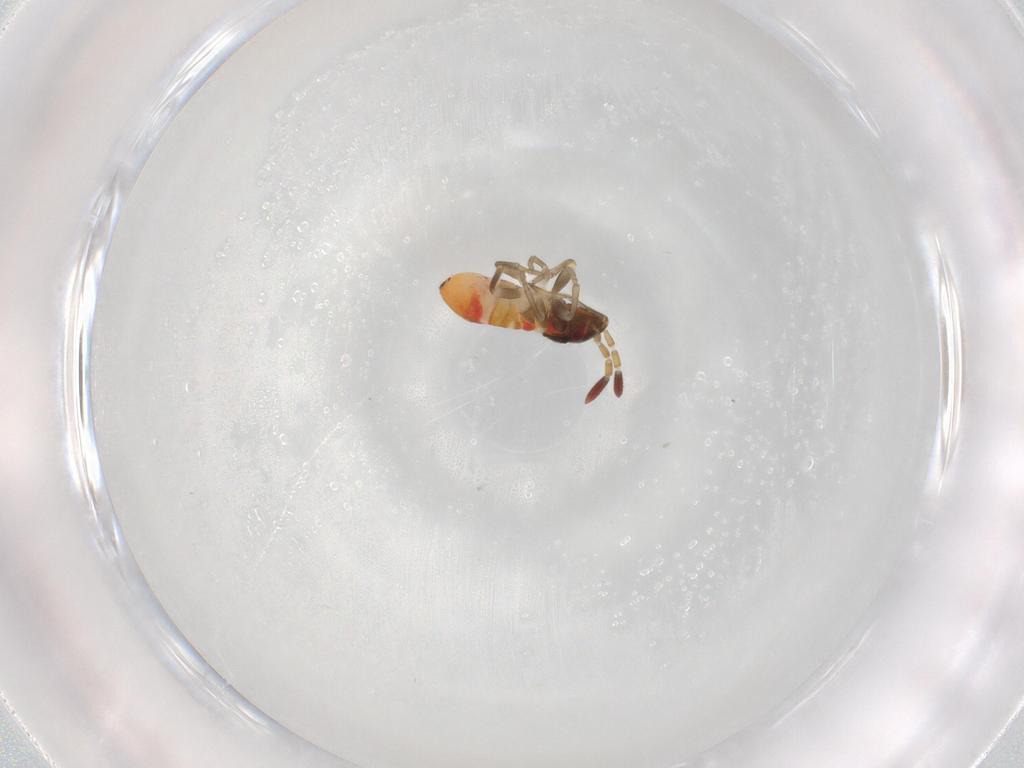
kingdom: Animalia
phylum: Arthropoda
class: Insecta
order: Hemiptera
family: Rhyparochromidae
